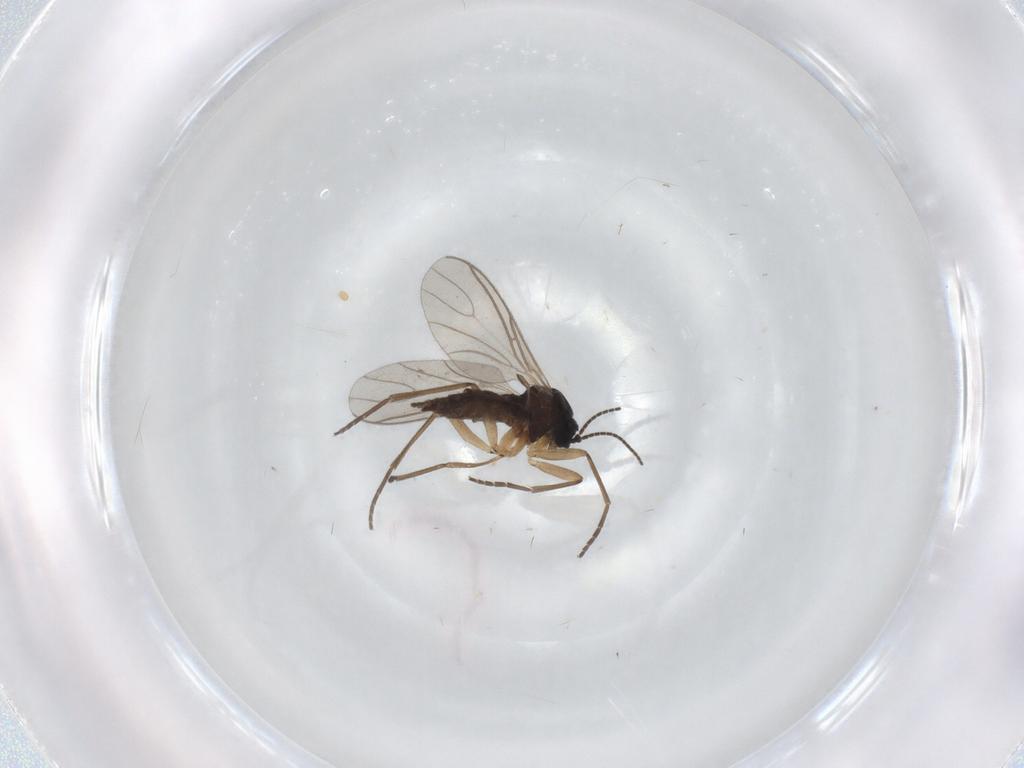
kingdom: Animalia
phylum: Arthropoda
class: Insecta
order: Diptera
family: Sciaridae
